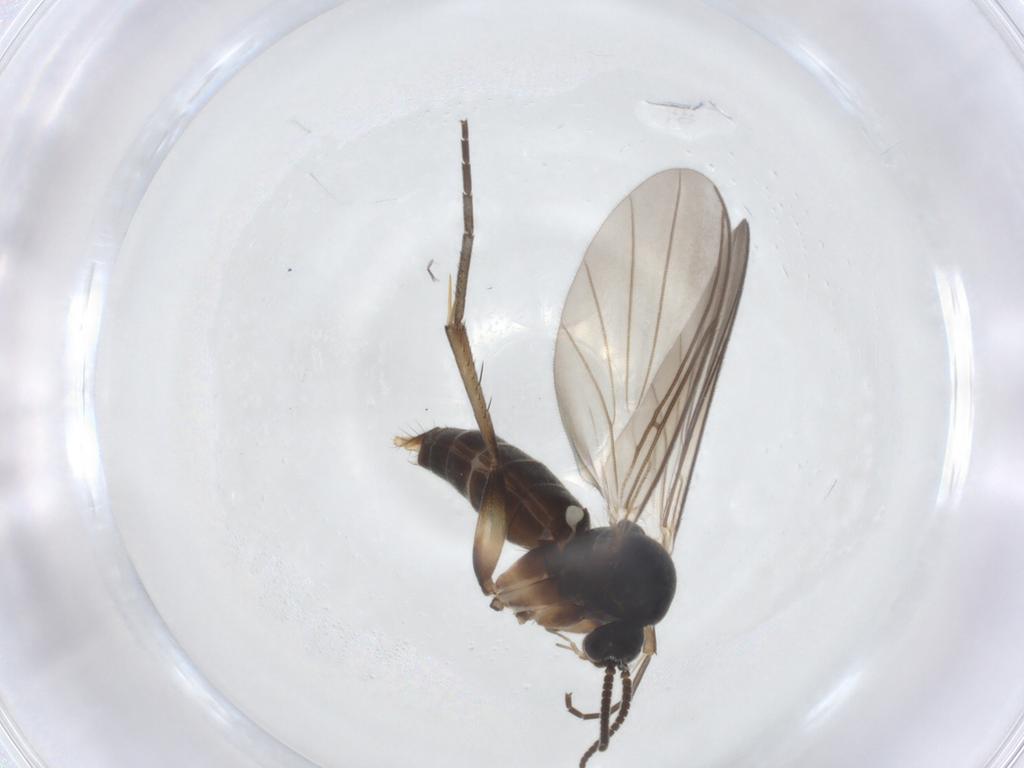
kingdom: Animalia
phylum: Arthropoda
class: Insecta
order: Diptera
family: Mycetophilidae
